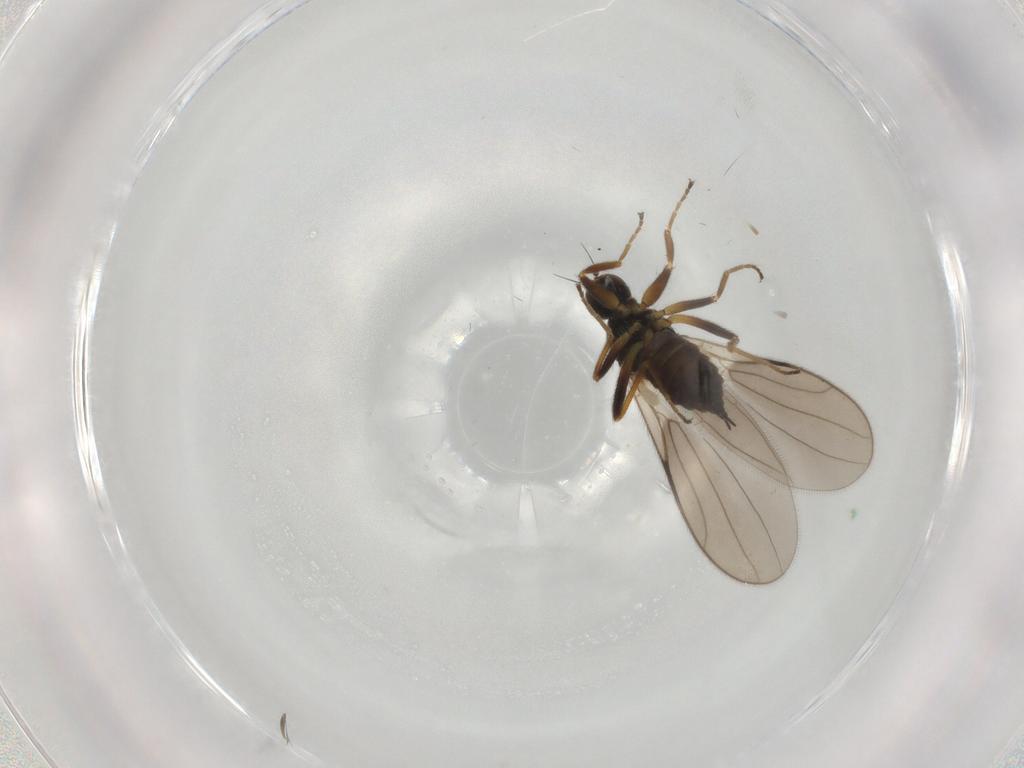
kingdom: Animalia
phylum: Arthropoda
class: Insecta
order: Diptera
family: Hybotidae
